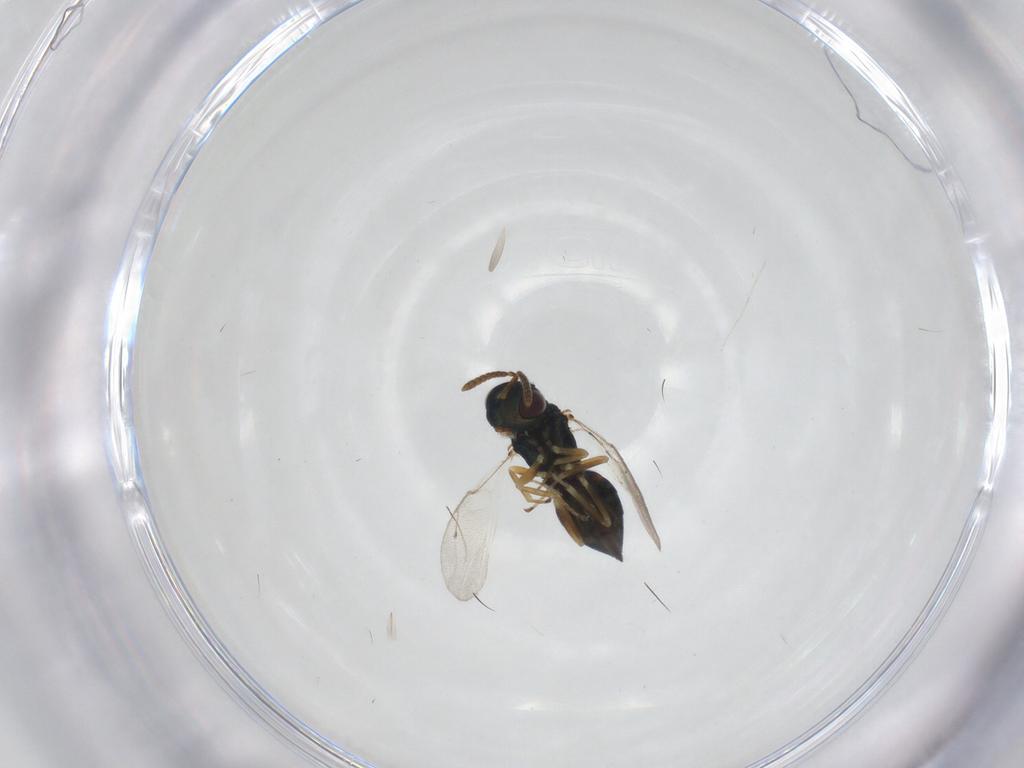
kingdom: Animalia
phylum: Arthropoda
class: Insecta
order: Hymenoptera
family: Pteromalidae
